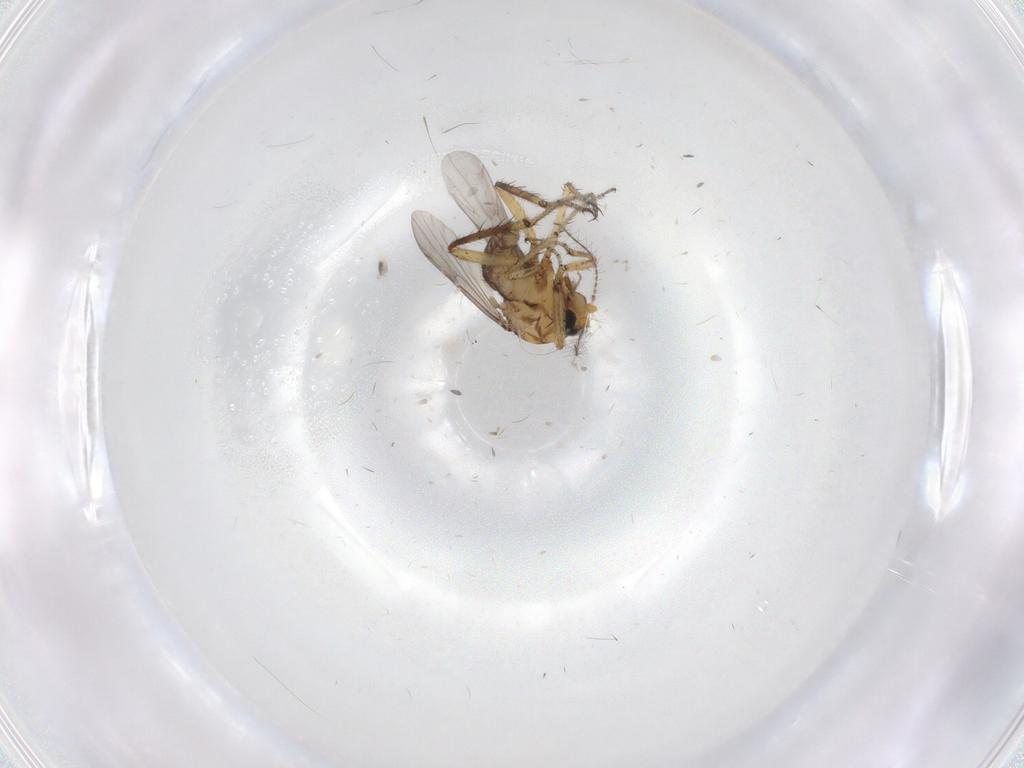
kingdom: Animalia
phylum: Arthropoda
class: Insecta
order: Diptera
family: Ceratopogonidae
